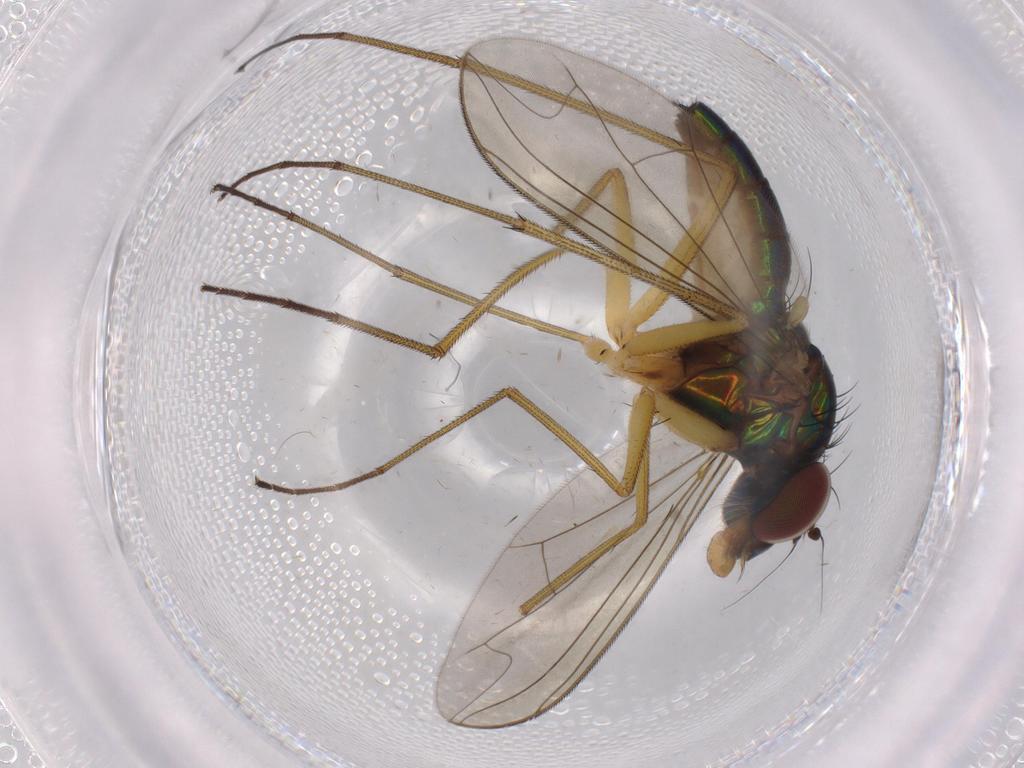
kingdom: Animalia
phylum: Arthropoda
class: Insecta
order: Diptera
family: Dolichopodidae
